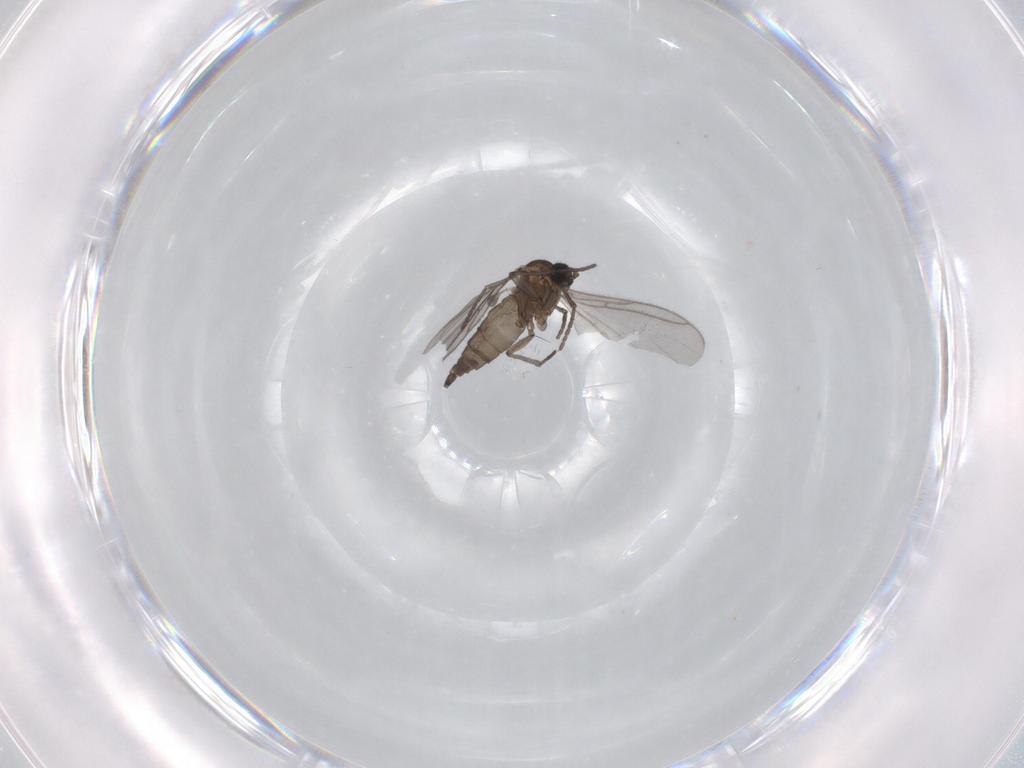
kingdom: Animalia
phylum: Arthropoda
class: Insecta
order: Diptera
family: Sciaridae
